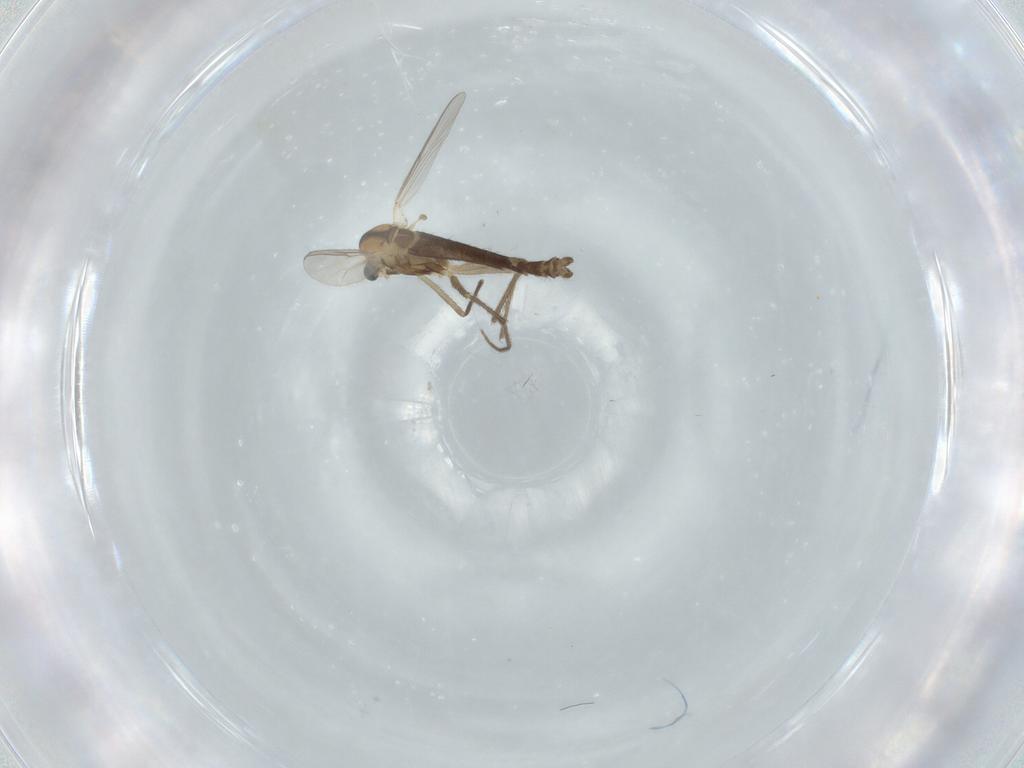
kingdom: Animalia
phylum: Arthropoda
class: Insecta
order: Diptera
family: Chironomidae
